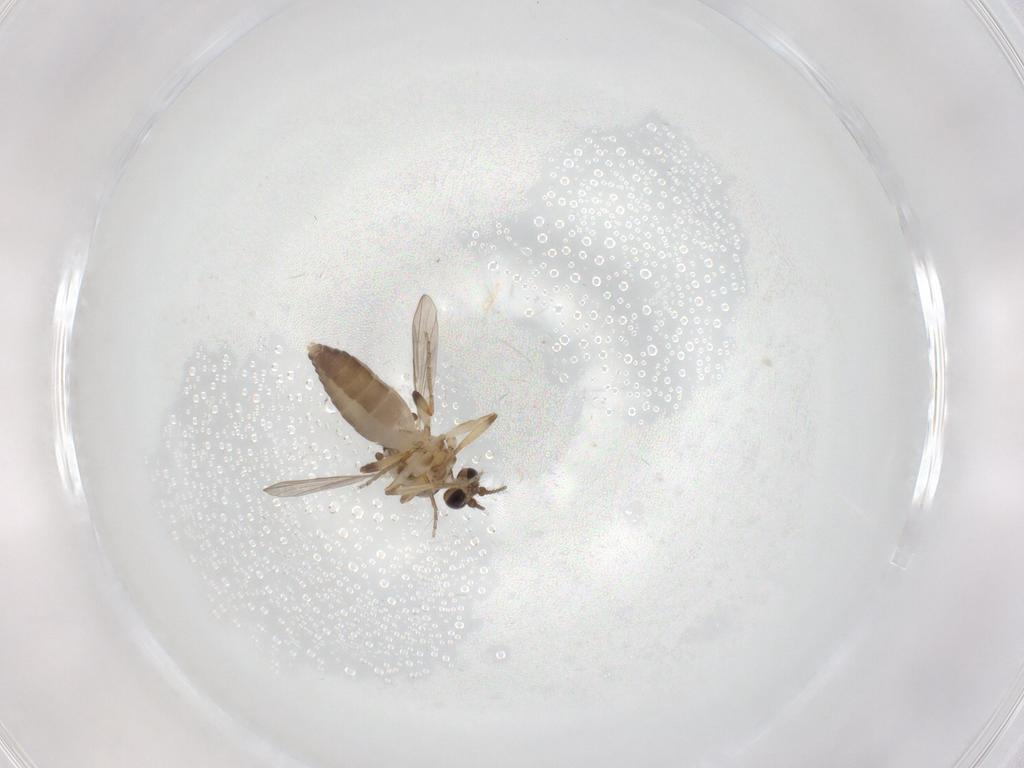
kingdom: Animalia
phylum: Arthropoda
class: Insecta
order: Diptera
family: Ceratopogonidae
